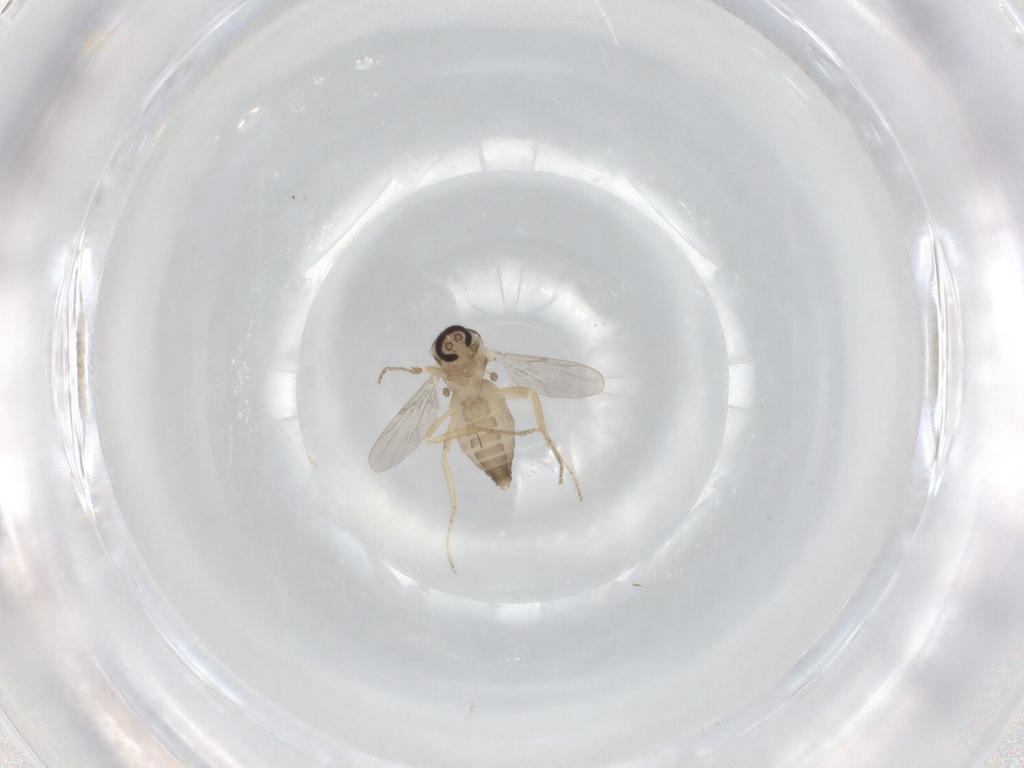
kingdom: Animalia
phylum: Arthropoda
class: Insecta
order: Diptera
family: Ceratopogonidae
